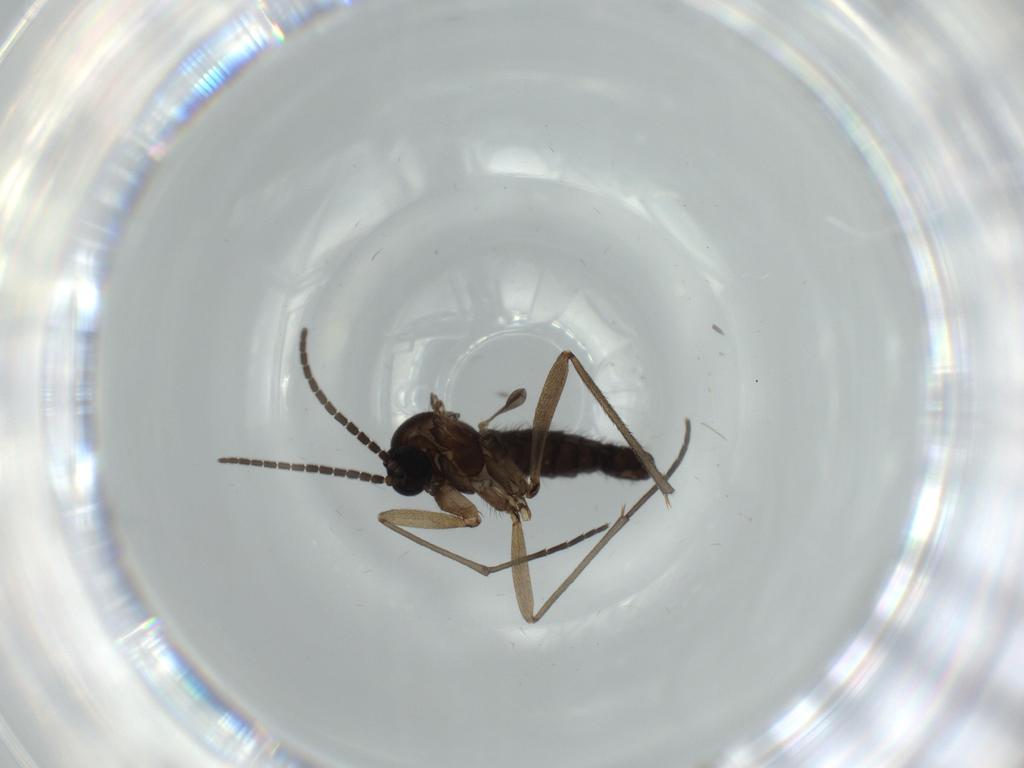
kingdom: Animalia
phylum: Arthropoda
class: Insecta
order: Diptera
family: Sciaridae
